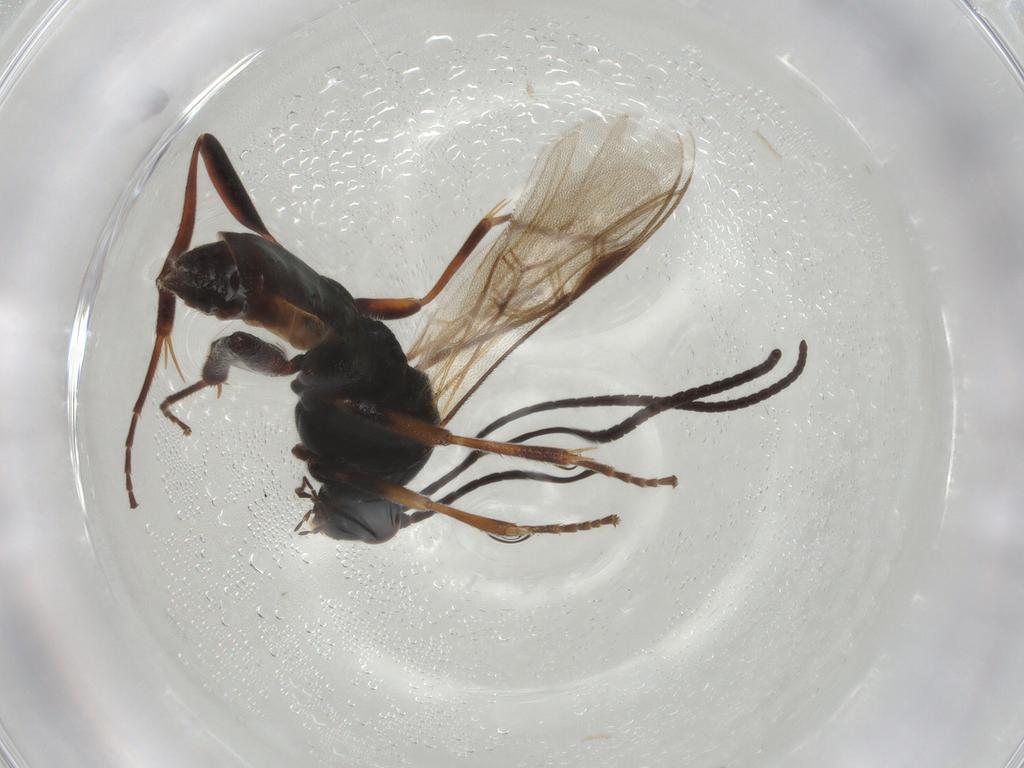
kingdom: Animalia
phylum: Arthropoda
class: Insecta
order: Hymenoptera
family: Braconidae
